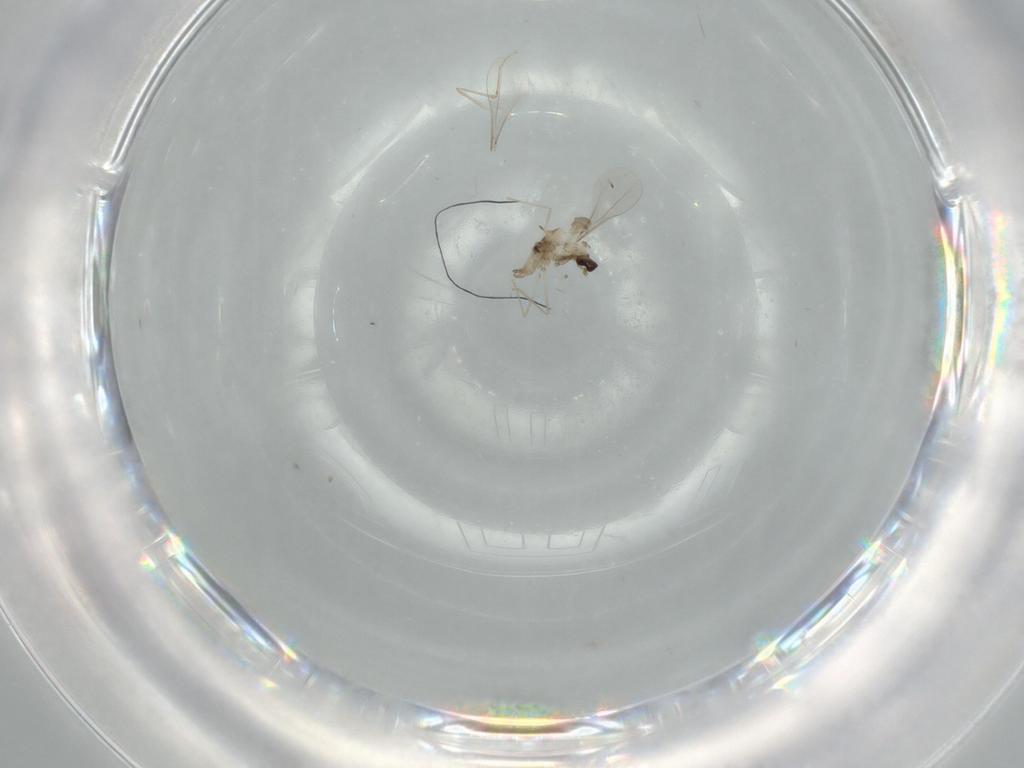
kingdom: Animalia
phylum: Arthropoda
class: Insecta
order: Diptera
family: Cecidomyiidae
